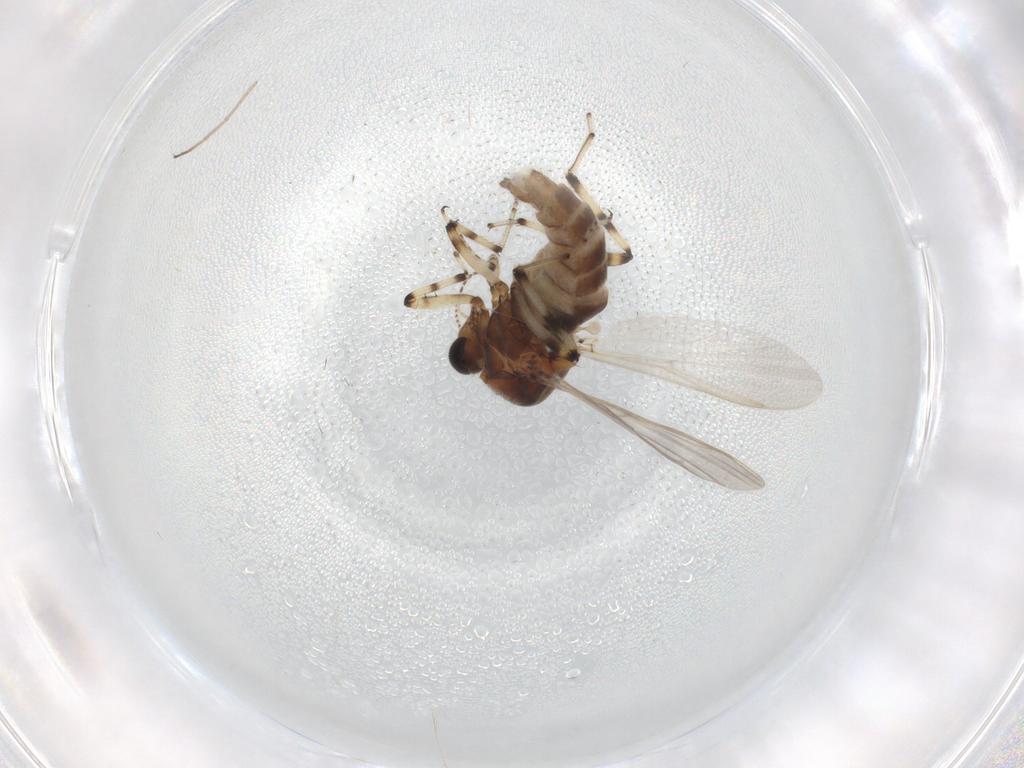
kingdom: Animalia
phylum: Arthropoda
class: Insecta
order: Diptera
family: Ceratopogonidae
